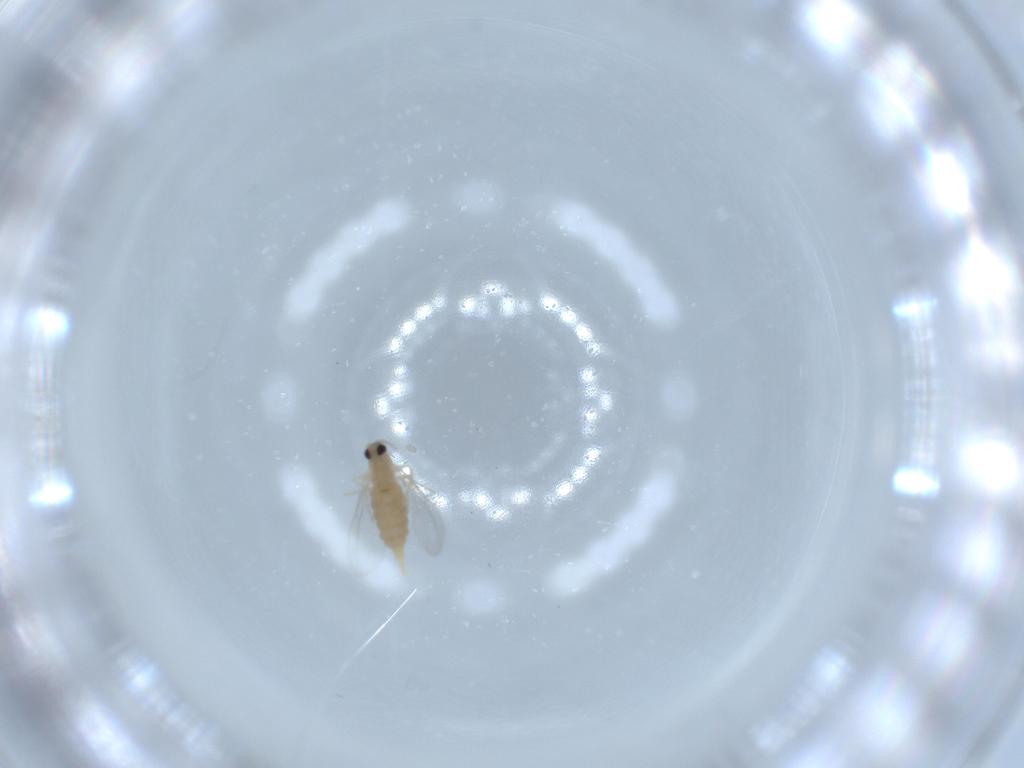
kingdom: Animalia
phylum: Arthropoda
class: Insecta
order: Diptera
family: Cecidomyiidae
